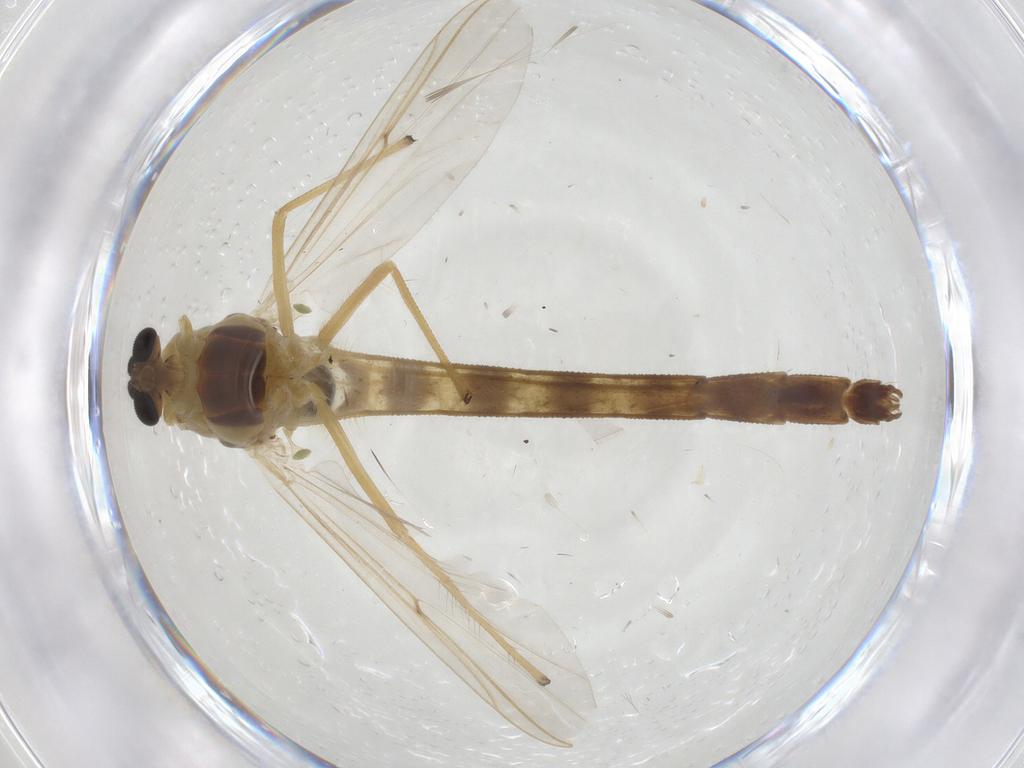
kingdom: Animalia
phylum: Arthropoda
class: Insecta
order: Diptera
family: Chironomidae
